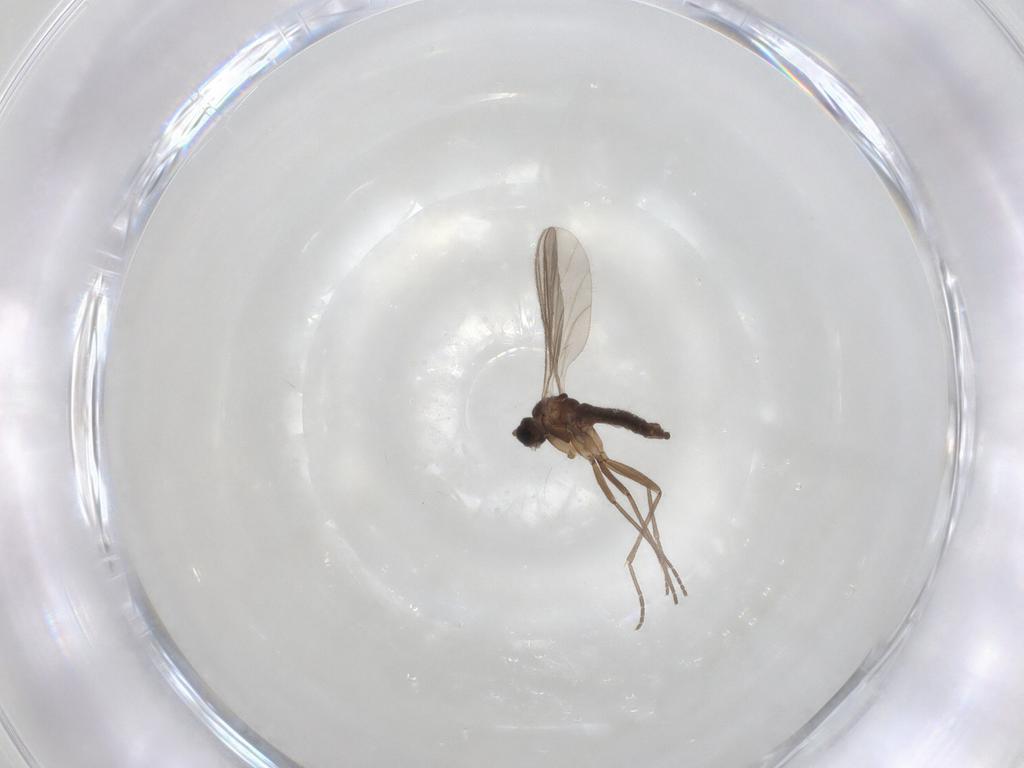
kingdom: Animalia
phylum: Arthropoda
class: Insecta
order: Diptera
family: Sciaridae
